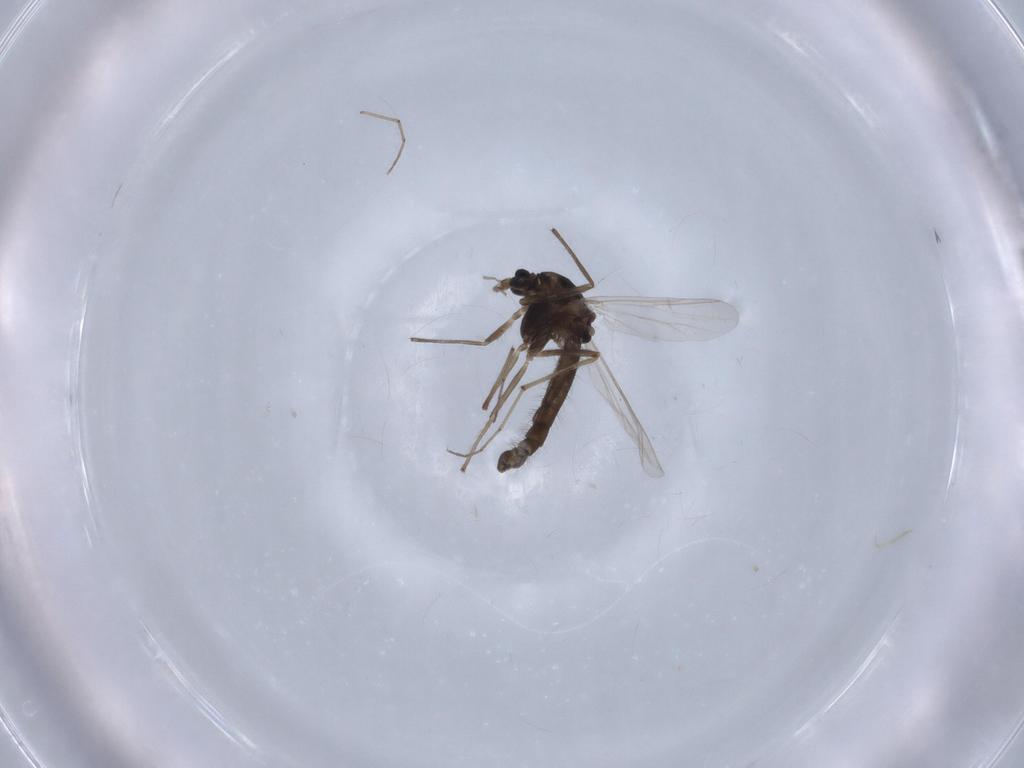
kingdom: Animalia
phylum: Arthropoda
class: Insecta
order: Diptera
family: Chironomidae
